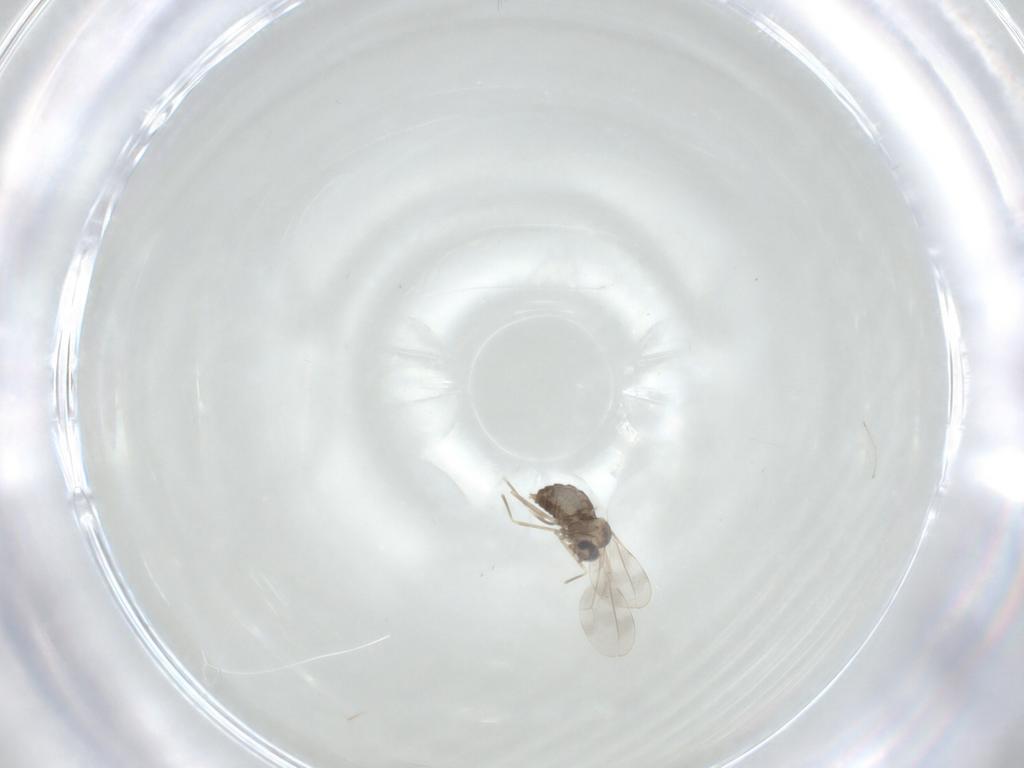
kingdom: Animalia
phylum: Arthropoda
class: Insecta
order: Diptera
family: Cecidomyiidae
